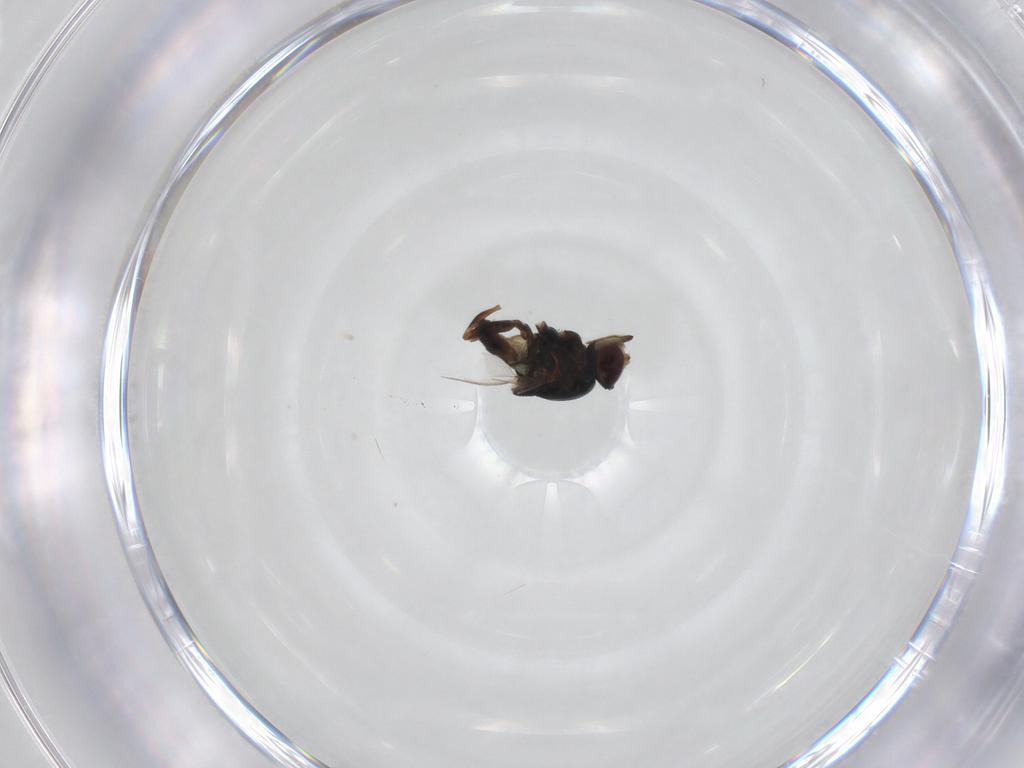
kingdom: Animalia
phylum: Arthropoda
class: Insecta
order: Diptera
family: Chloropidae
